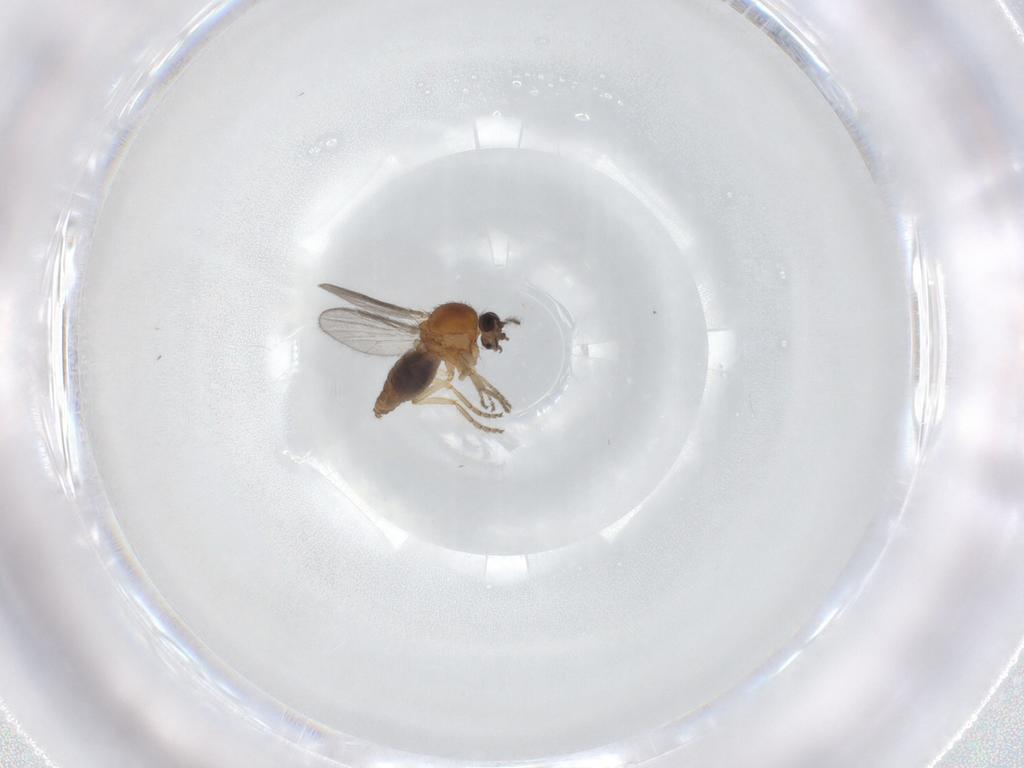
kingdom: Animalia
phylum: Arthropoda
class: Insecta
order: Diptera
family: Ceratopogonidae
